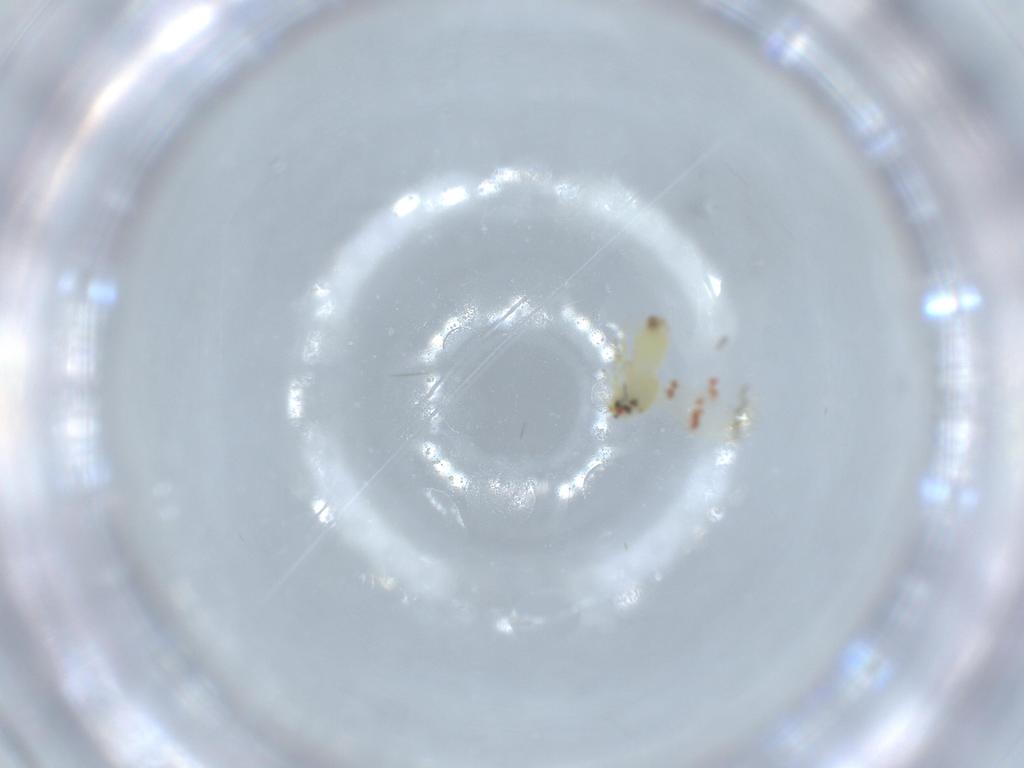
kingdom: Animalia
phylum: Arthropoda
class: Insecta
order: Hemiptera
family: Aleyrodidae
